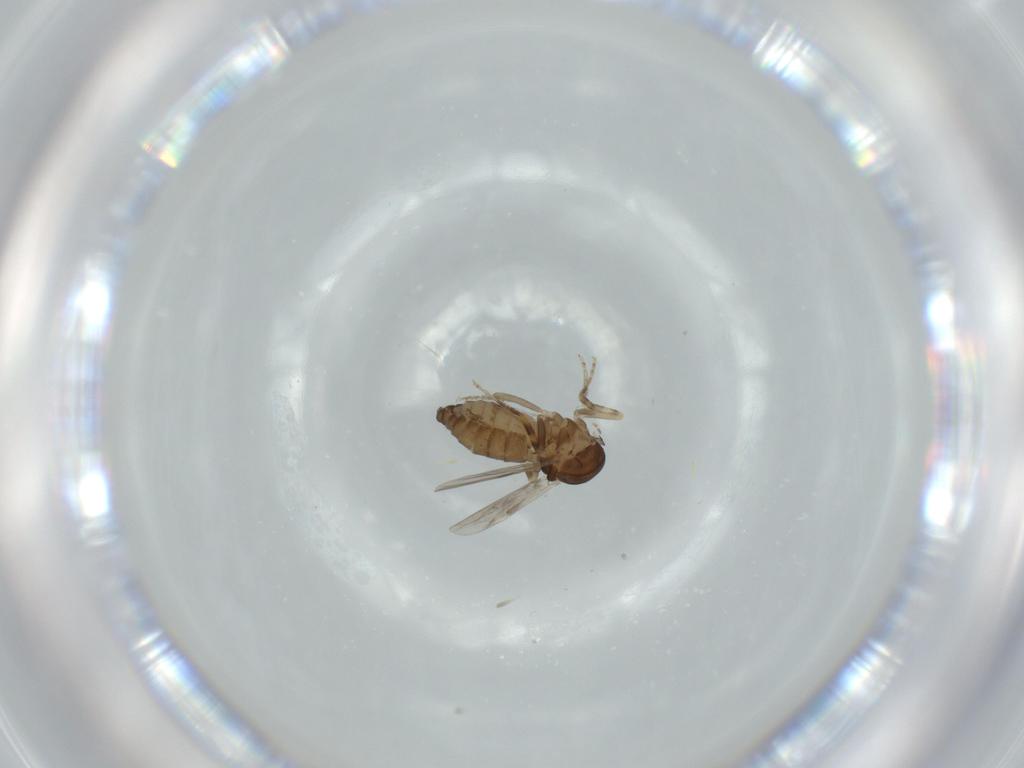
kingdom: Animalia
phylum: Arthropoda
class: Insecta
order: Diptera
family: Ceratopogonidae
